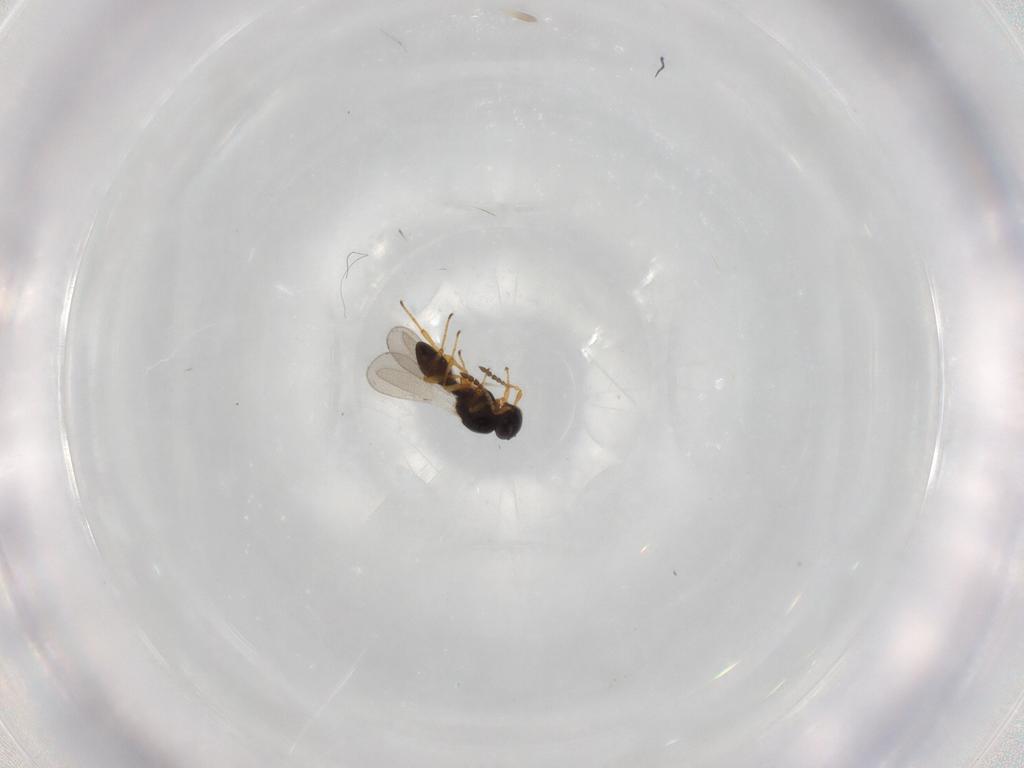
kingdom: Animalia
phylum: Arthropoda
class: Insecta
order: Hymenoptera
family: Platygastridae
